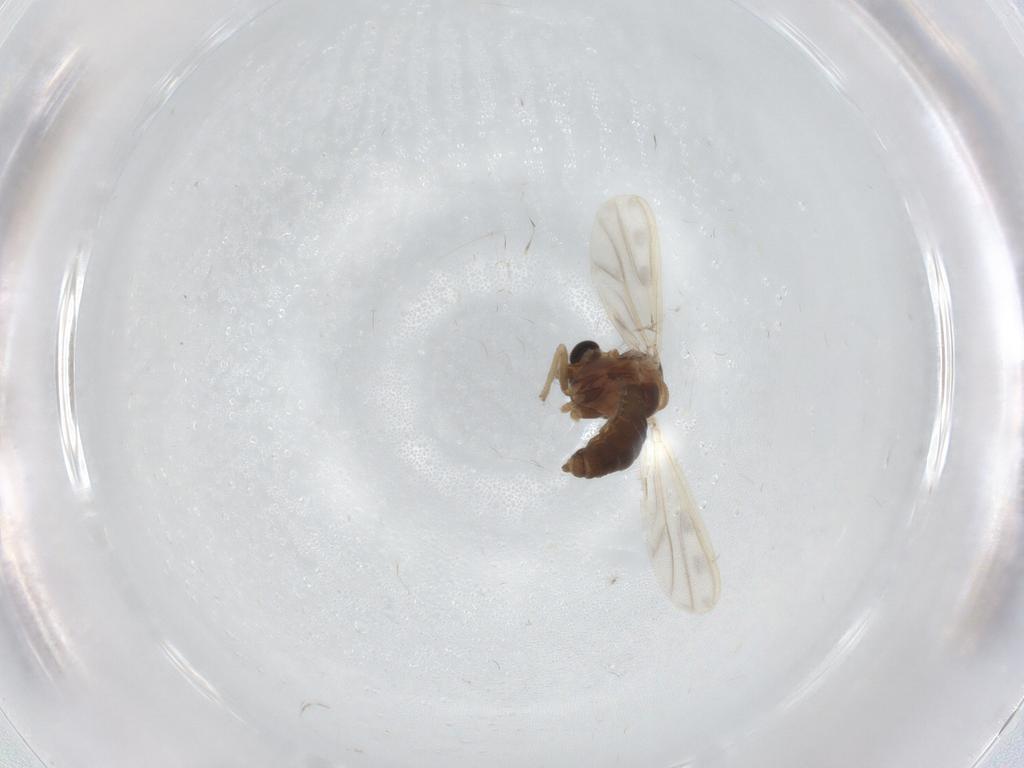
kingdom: Animalia
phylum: Arthropoda
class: Insecta
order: Diptera
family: Chironomidae
